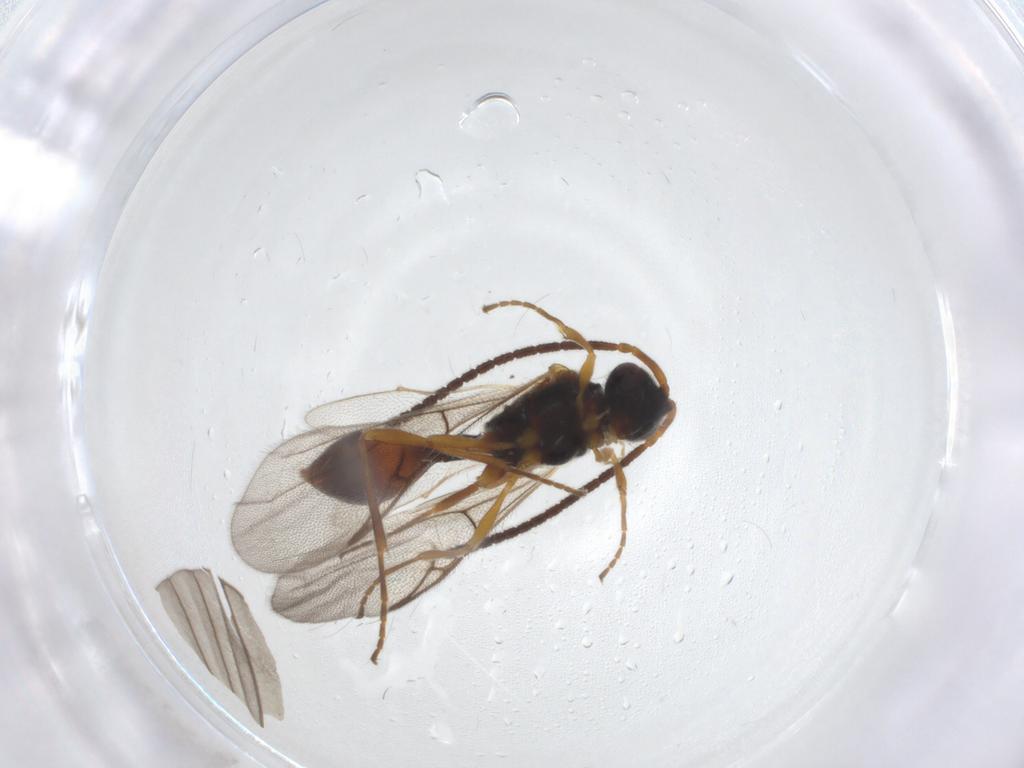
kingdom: Animalia
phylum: Arthropoda
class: Insecta
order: Hymenoptera
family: Diapriidae
